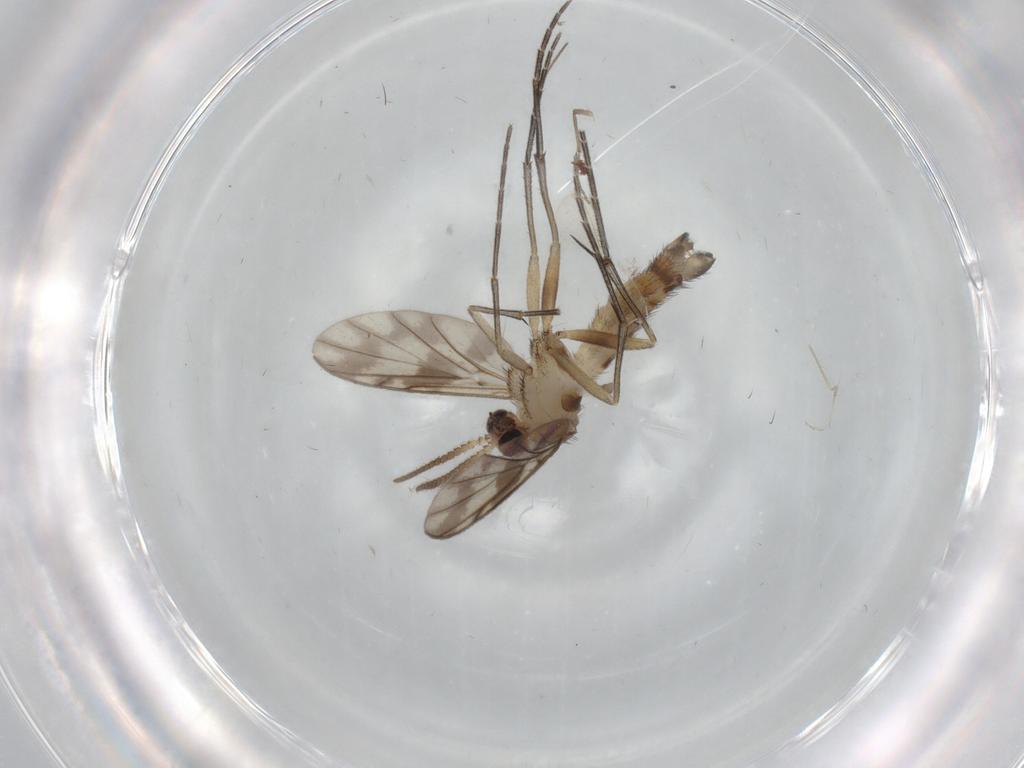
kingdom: Animalia
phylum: Arthropoda
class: Insecta
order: Diptera
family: Keroplatidae
